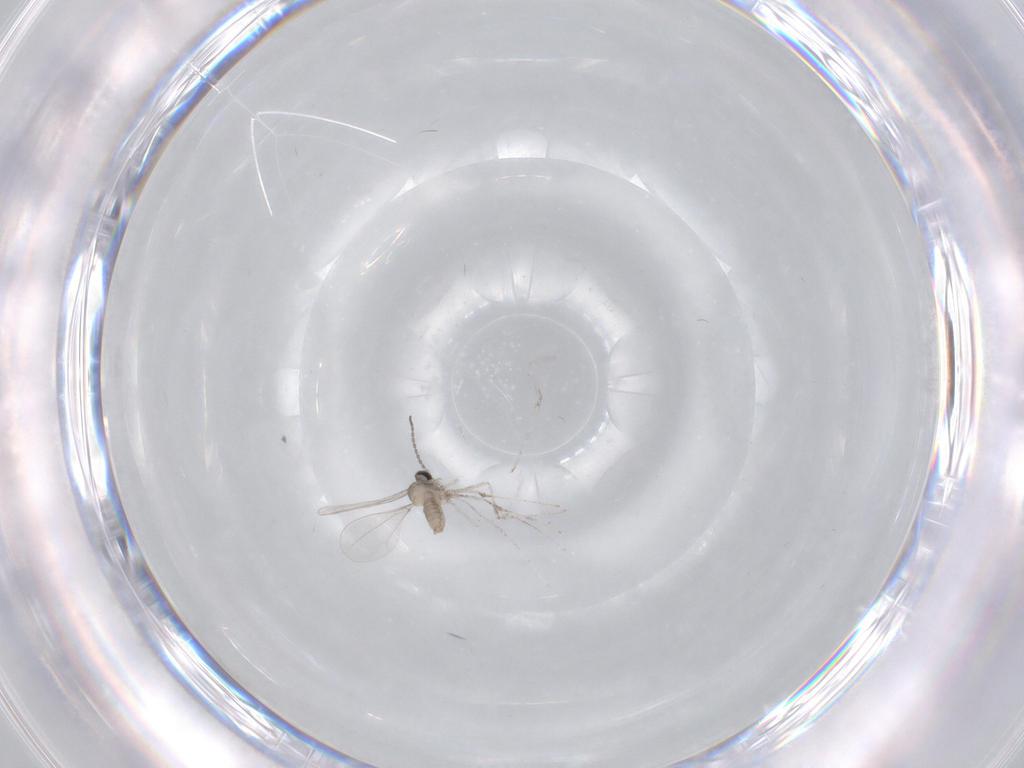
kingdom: Animalia
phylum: Arthropoda
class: Insecta
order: Diptera
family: Cecidomyiidae
